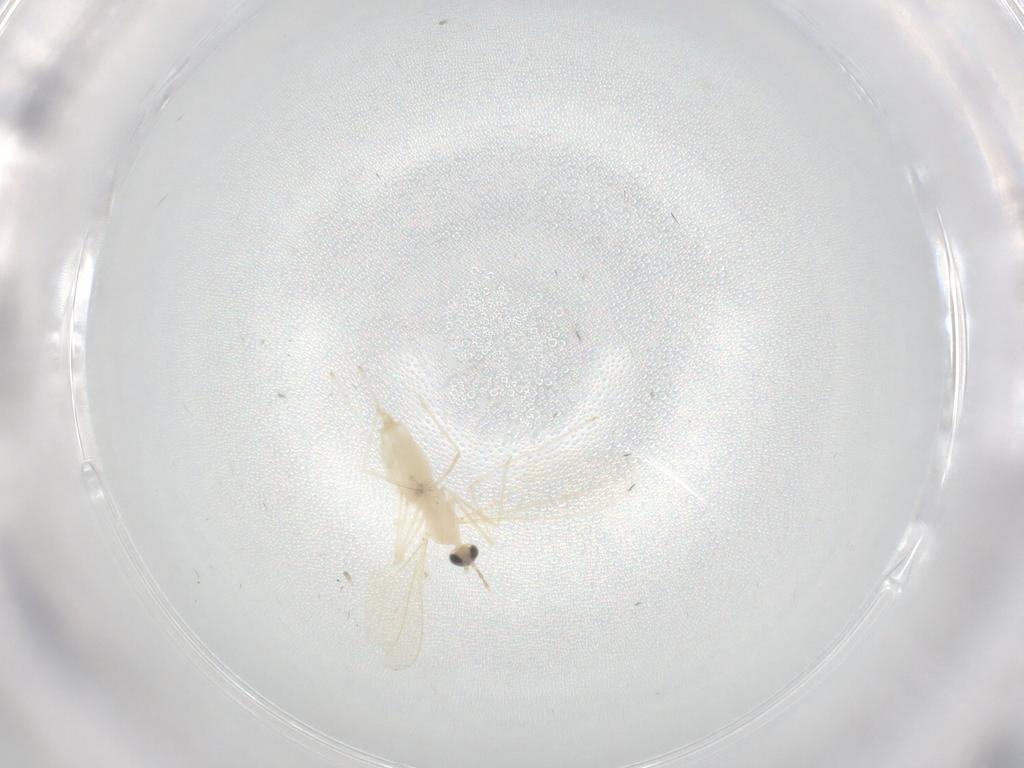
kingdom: Animalia
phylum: Arthropoda
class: Insecta
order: Diptera
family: Cecidomyiidae
